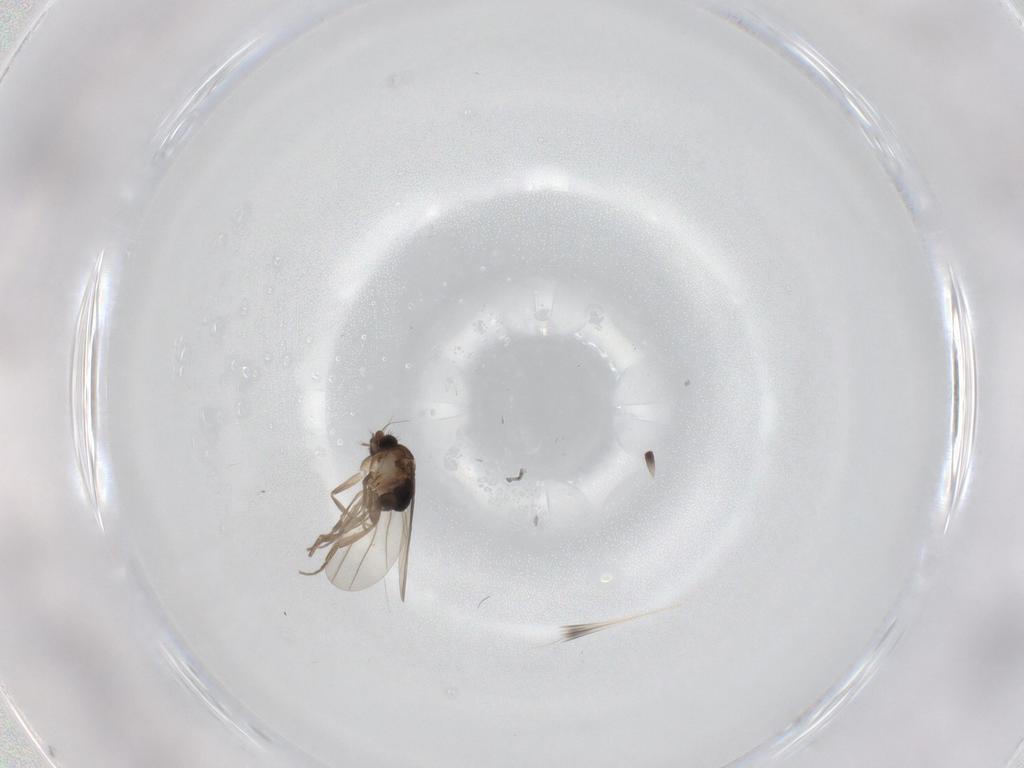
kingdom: Animalia
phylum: Arthropoda
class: Insecta
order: Diptera
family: Phoridae
